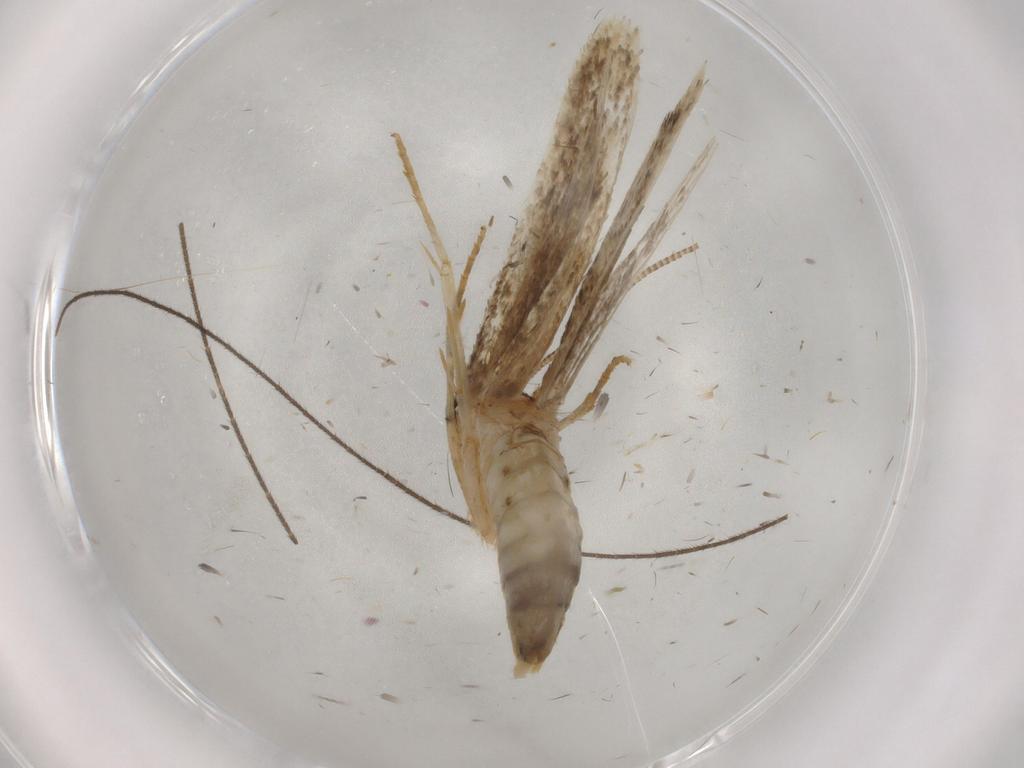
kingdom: Animalia
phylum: Arthropoda
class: Insecta
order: Lepidoptera
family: Tineidae
